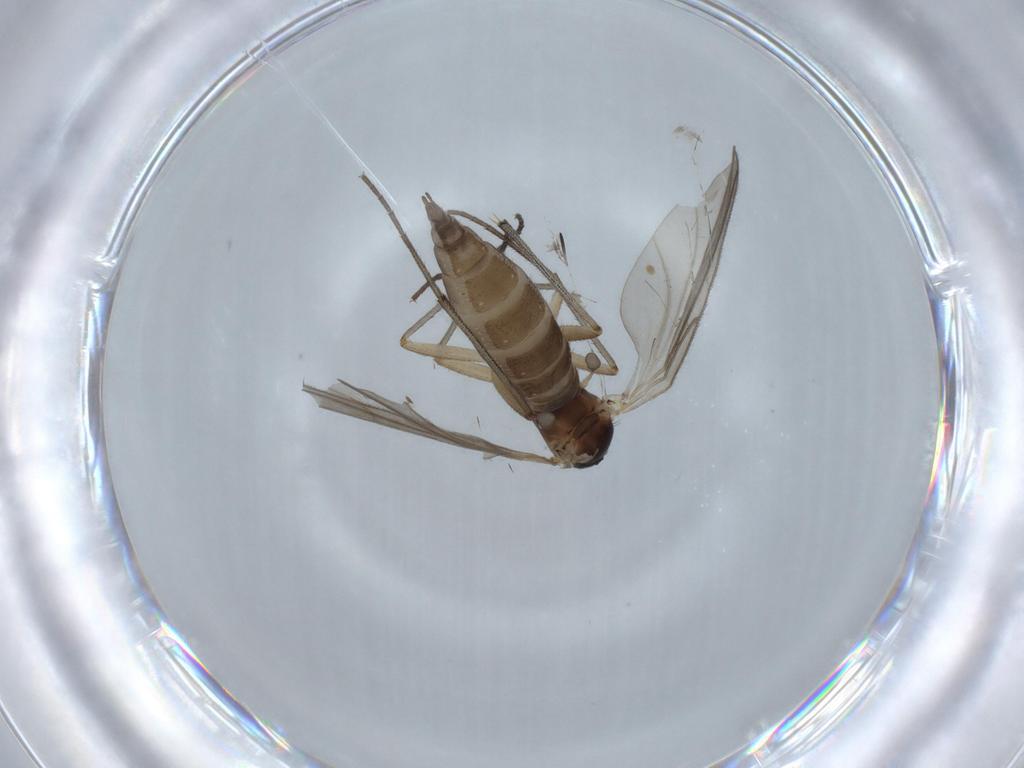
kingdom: Animalia
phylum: Arthropoda
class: Insecta
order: Diptera
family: Sciaridae
